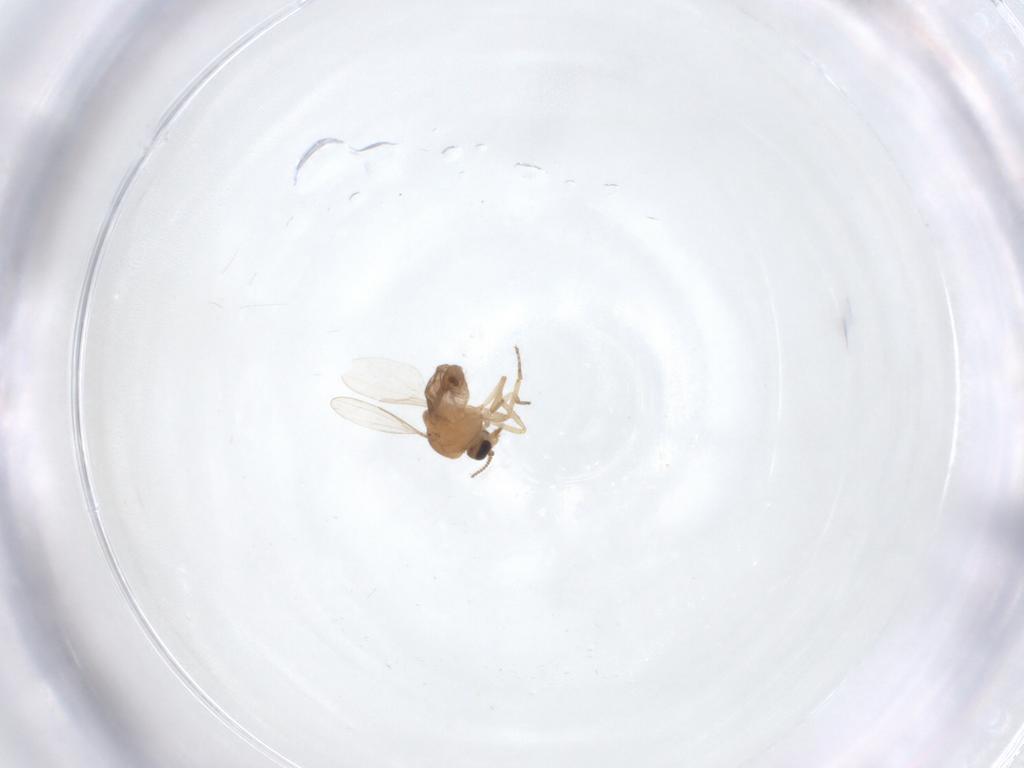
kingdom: Animalia
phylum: Arthropoda
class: Insecta
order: Diptera
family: Ceratopogonidae
